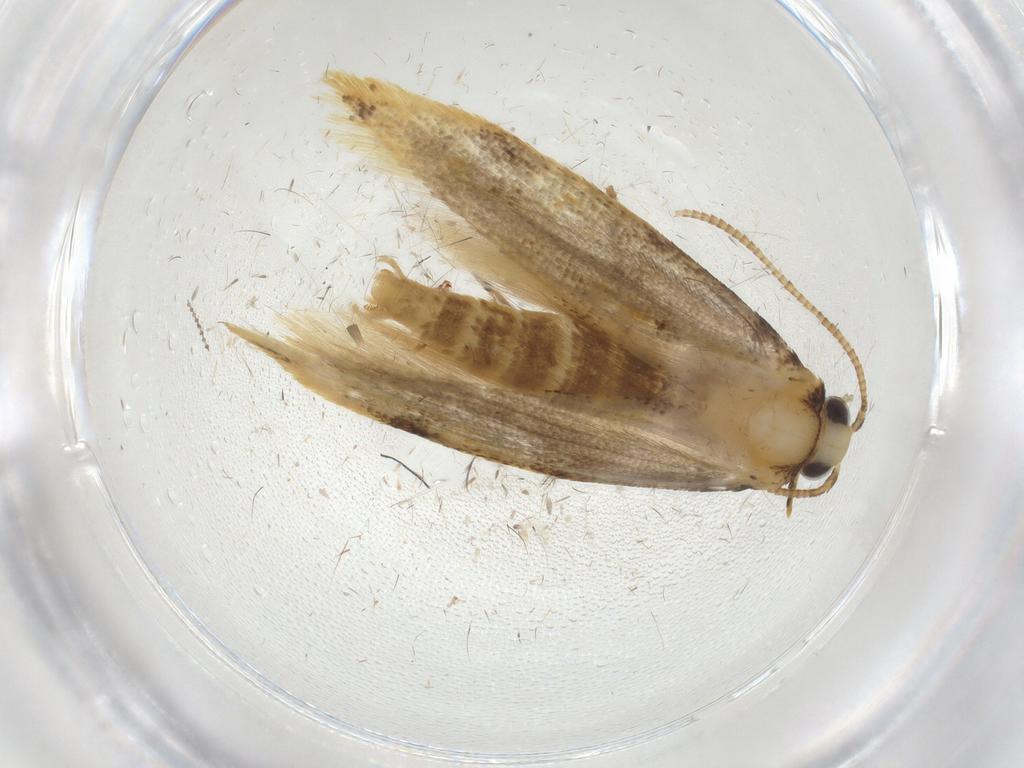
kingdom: Animalia
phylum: Arthropoda
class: Insecta
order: Lepidoptera
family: Tineidae
